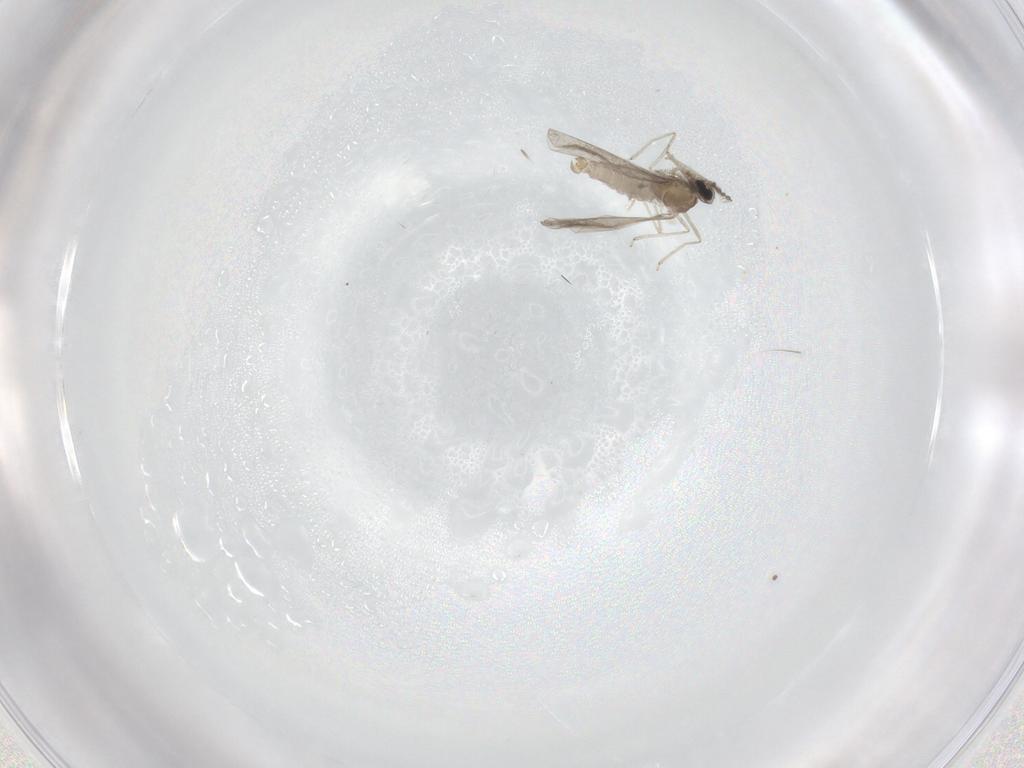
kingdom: Animalia
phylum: Arthropoda
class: Insecta
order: Diptera
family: Cecidomyiidae
